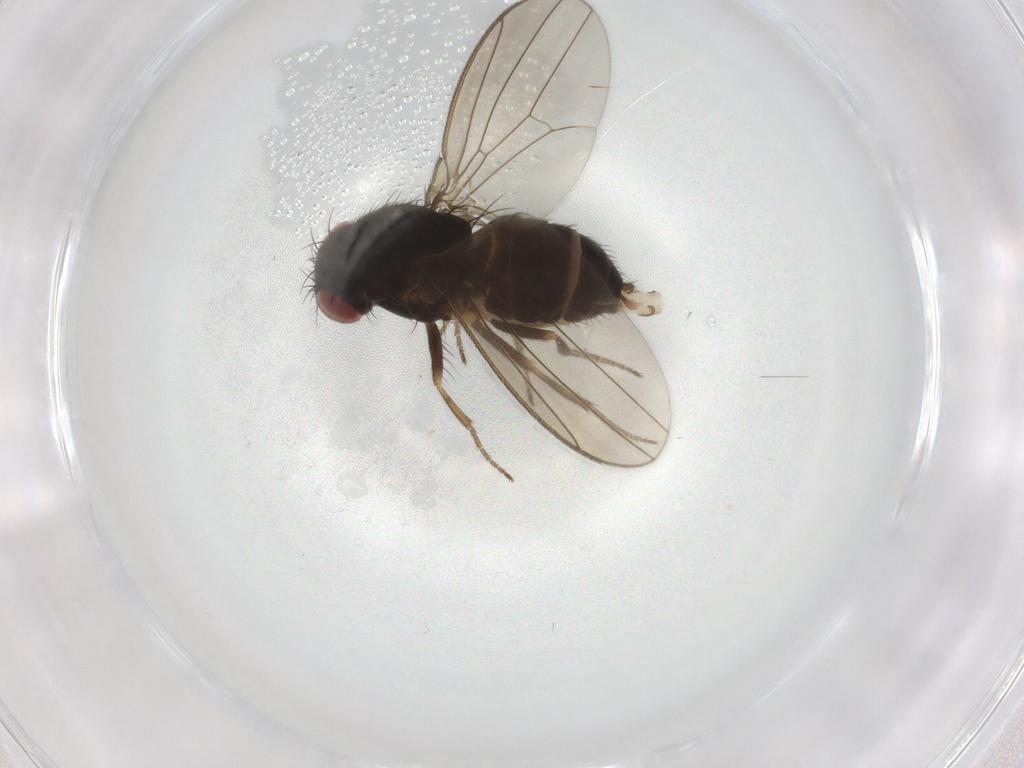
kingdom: Animalia
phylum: Arthropoda
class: Insecta
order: Diptera
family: Drosophilidae
